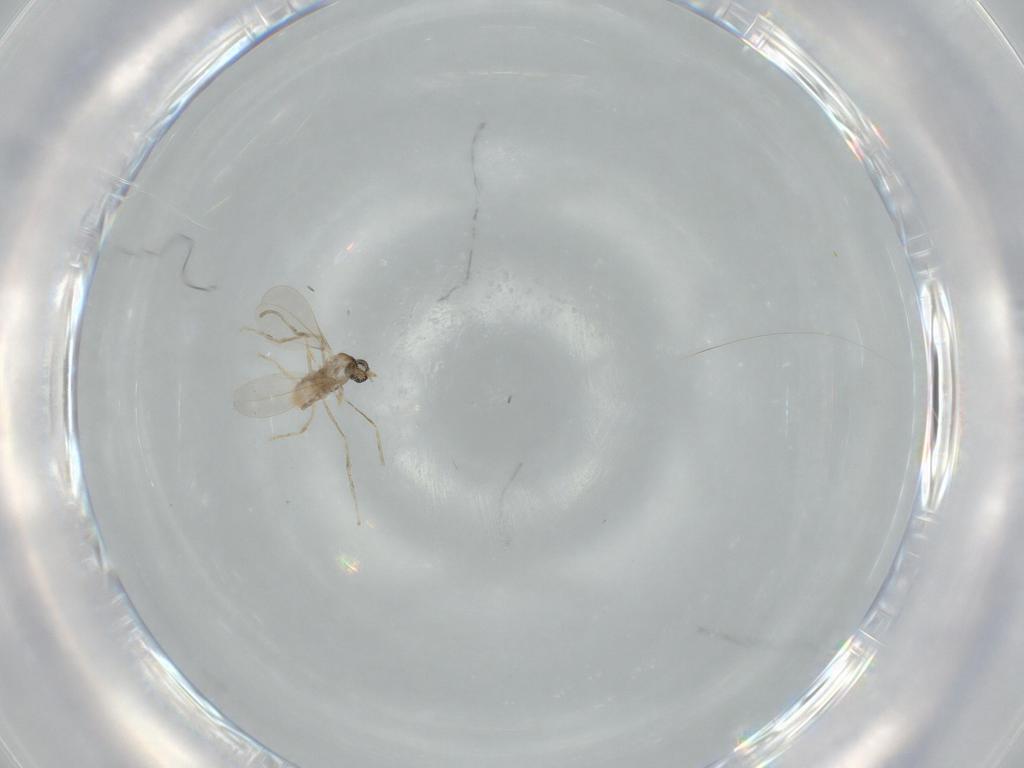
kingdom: Animalia
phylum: Arthropoda
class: Insecta
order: Diptera
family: Cecidomyiidae
